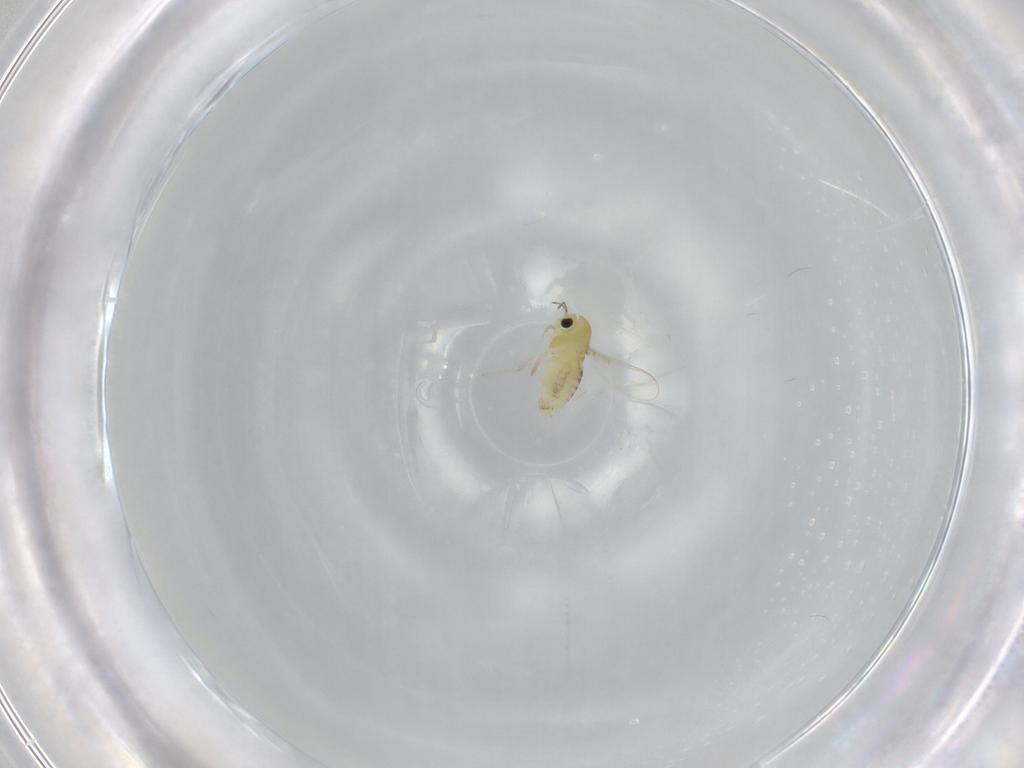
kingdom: Animalia
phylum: Arthropoda
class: Insecta
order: Diptera
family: Chironomidae
